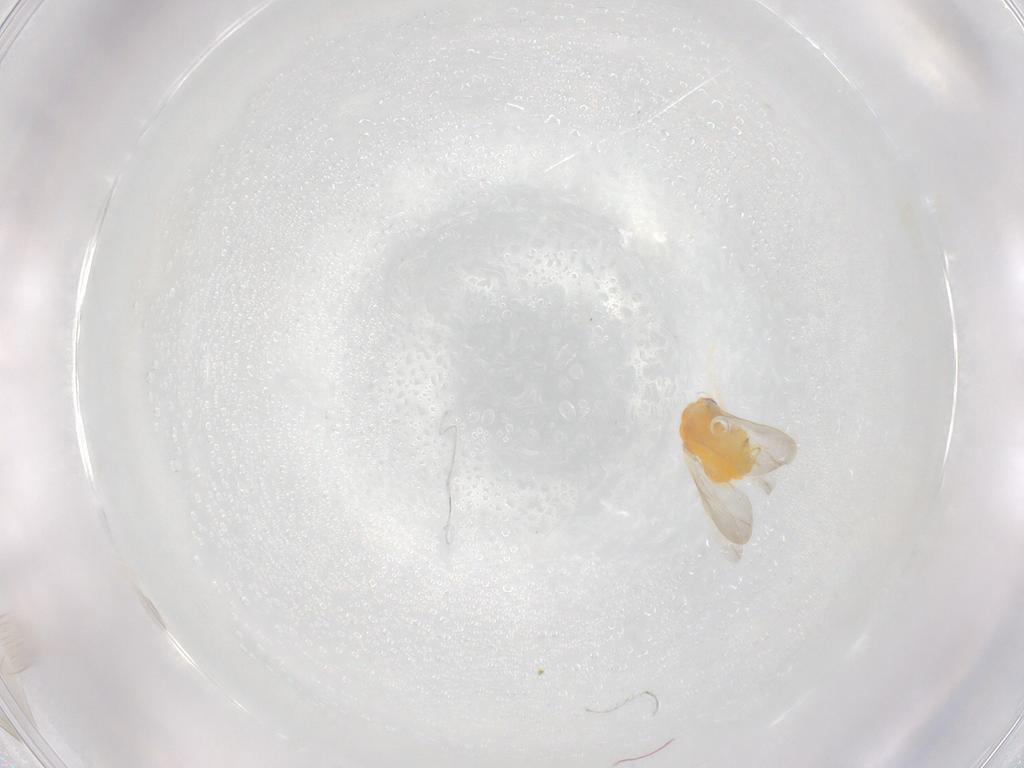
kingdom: Animalia
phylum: Arthropoda
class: Insecta
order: Hemiptera
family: Aleyrodidae
